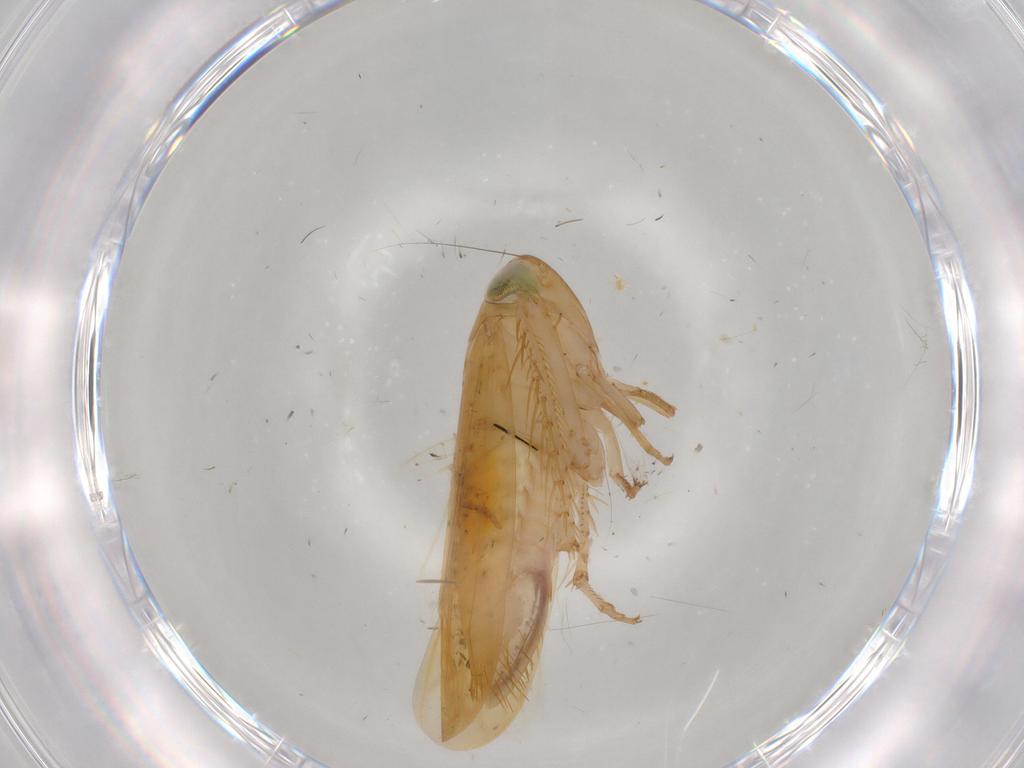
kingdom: Animalia
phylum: Arthropoda
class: Insecta
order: Hemiptera
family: Cicadellidae
